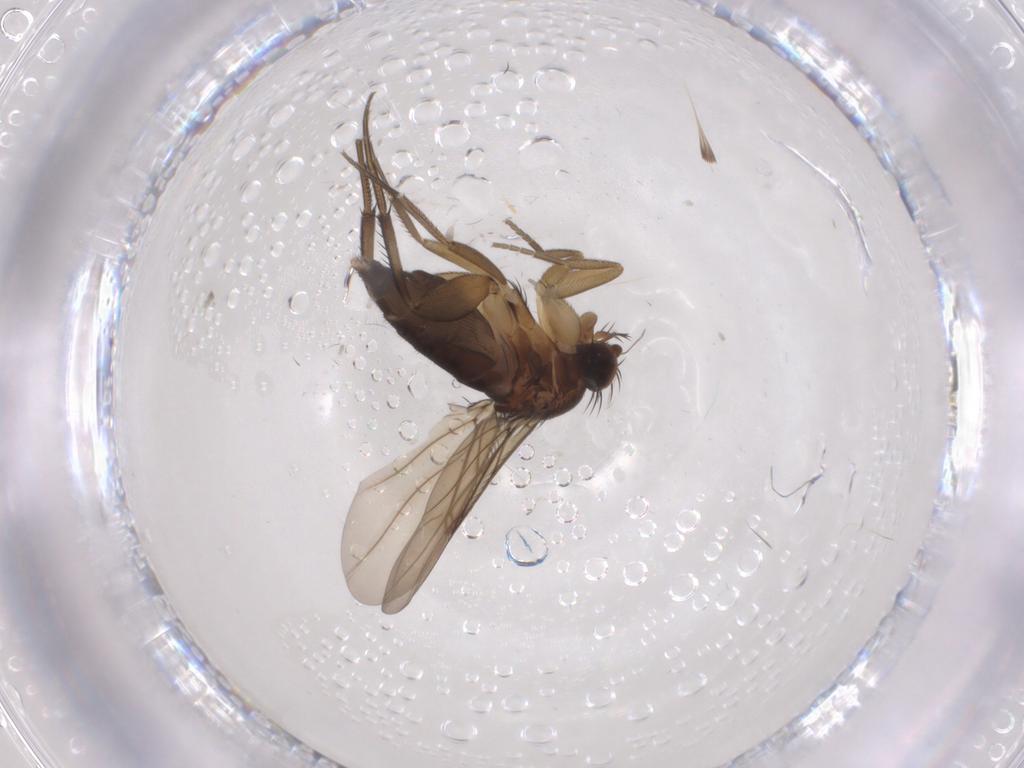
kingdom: Animalia
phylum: Arthropoda
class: Insecta
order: Diptera
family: Phoridae
